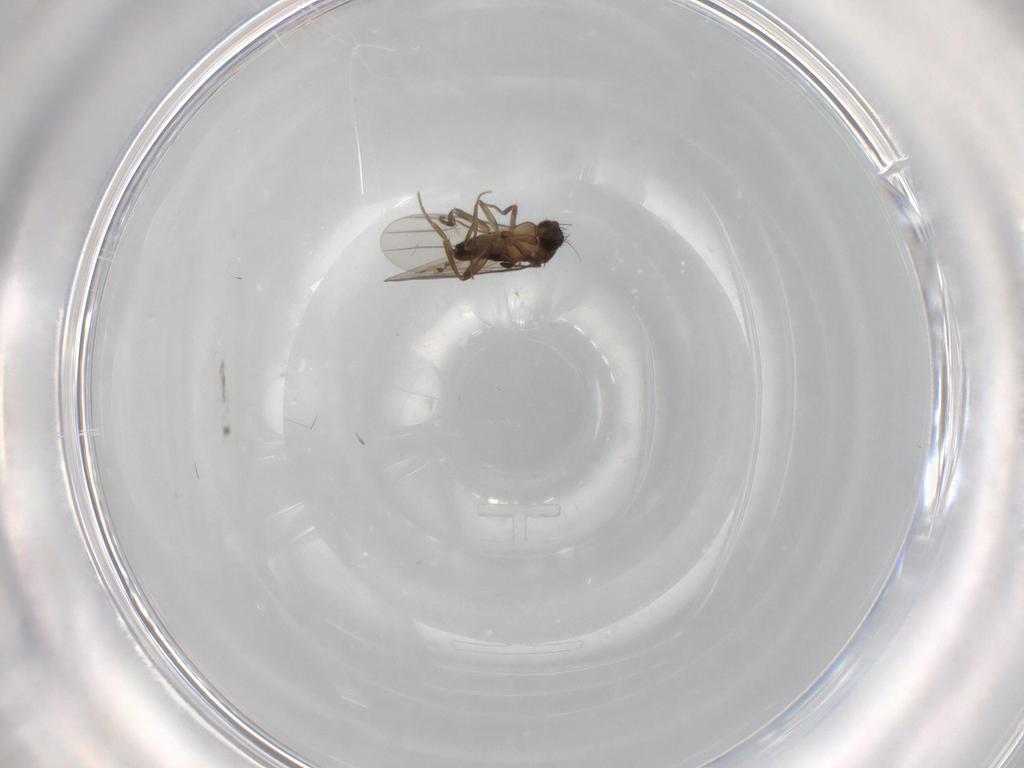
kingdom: Animalia
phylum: Arthropoda
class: Insecta
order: Diptera
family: Phoridae
